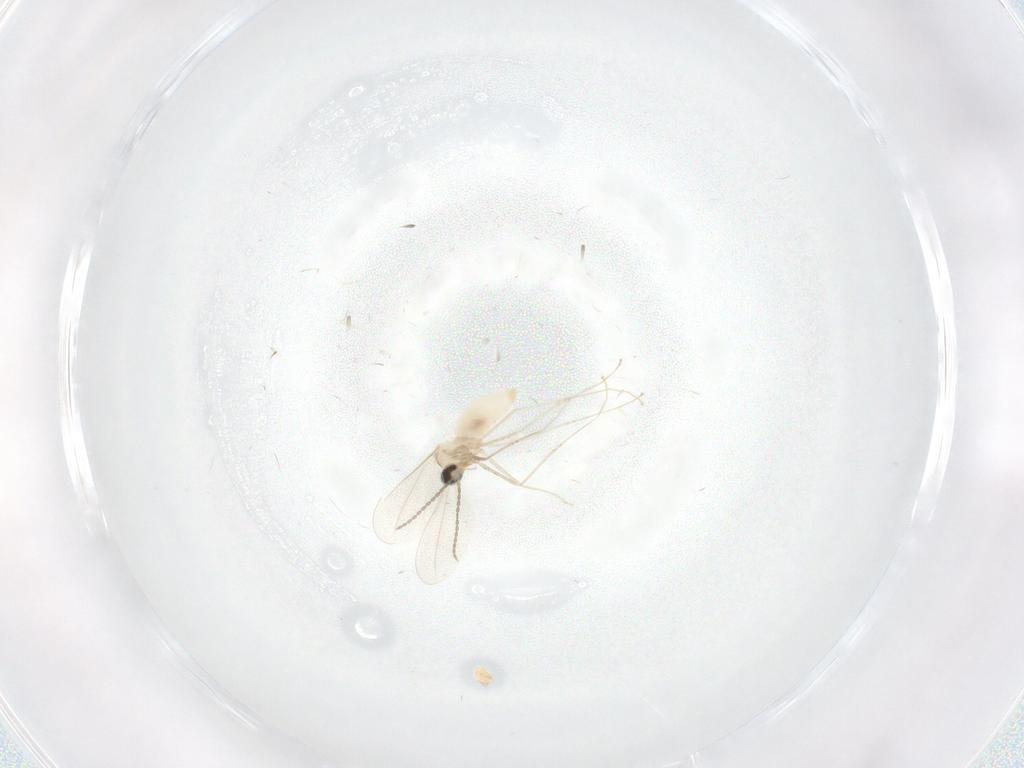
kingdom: Animalia
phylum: Arthropoda
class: Insecta
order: Diptera
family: Cecidomyiidae
